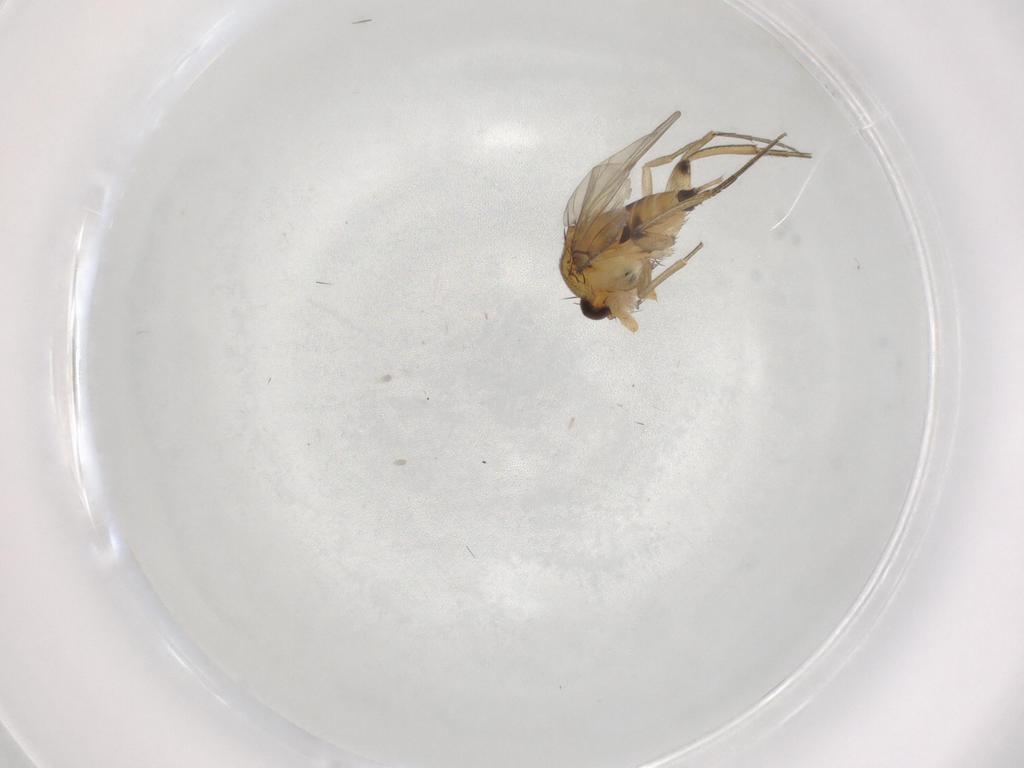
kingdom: Animalia
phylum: Arthropoda
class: Insecta
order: Diptera
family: Phoridae
